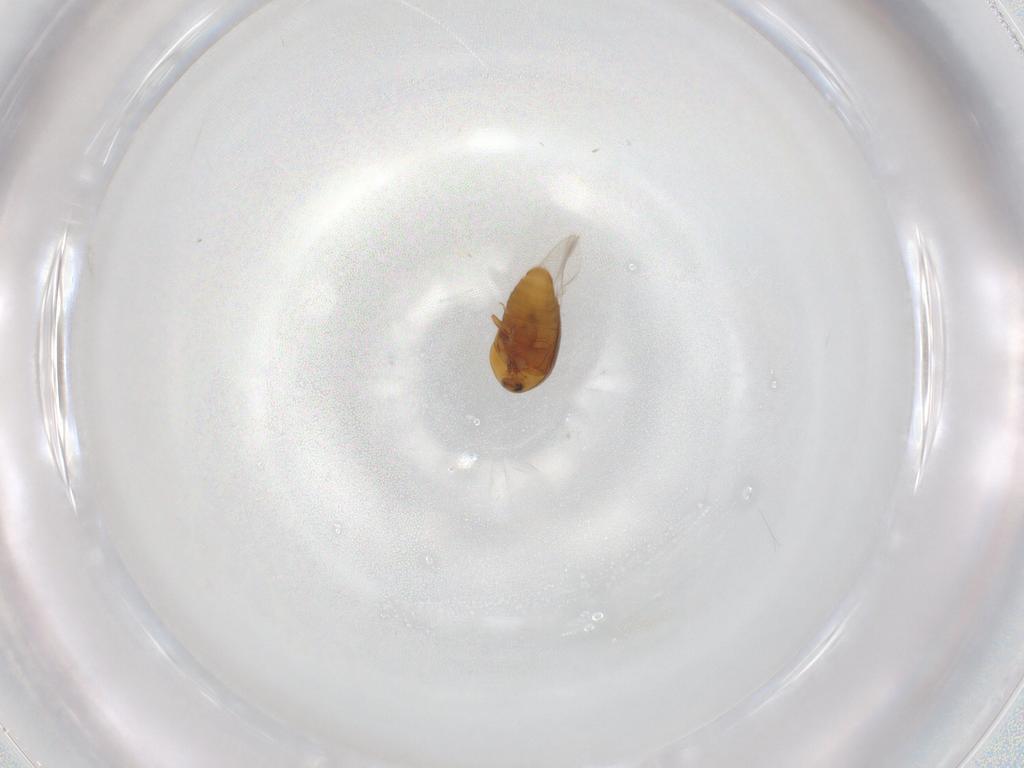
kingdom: Animalia
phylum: Arthropoda
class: Insecta
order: Coleoptera
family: Corylophidae
